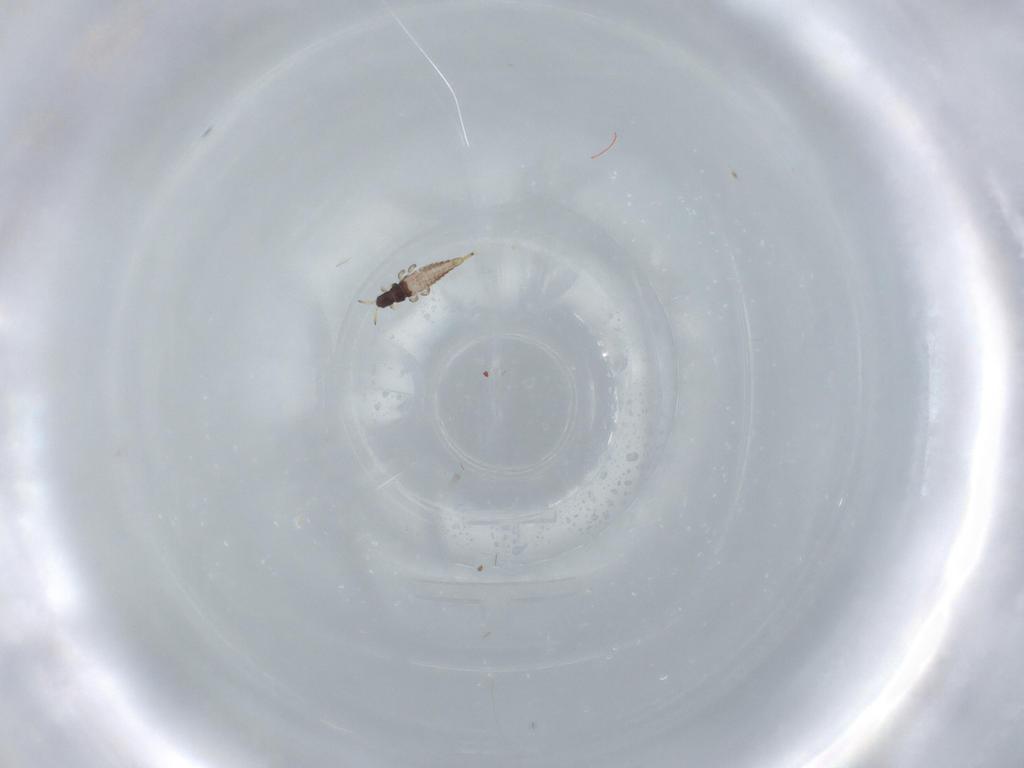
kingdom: Animalia
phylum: Arthropoda
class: Insecta
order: Thysanoptera
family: Phlaeothripidae
